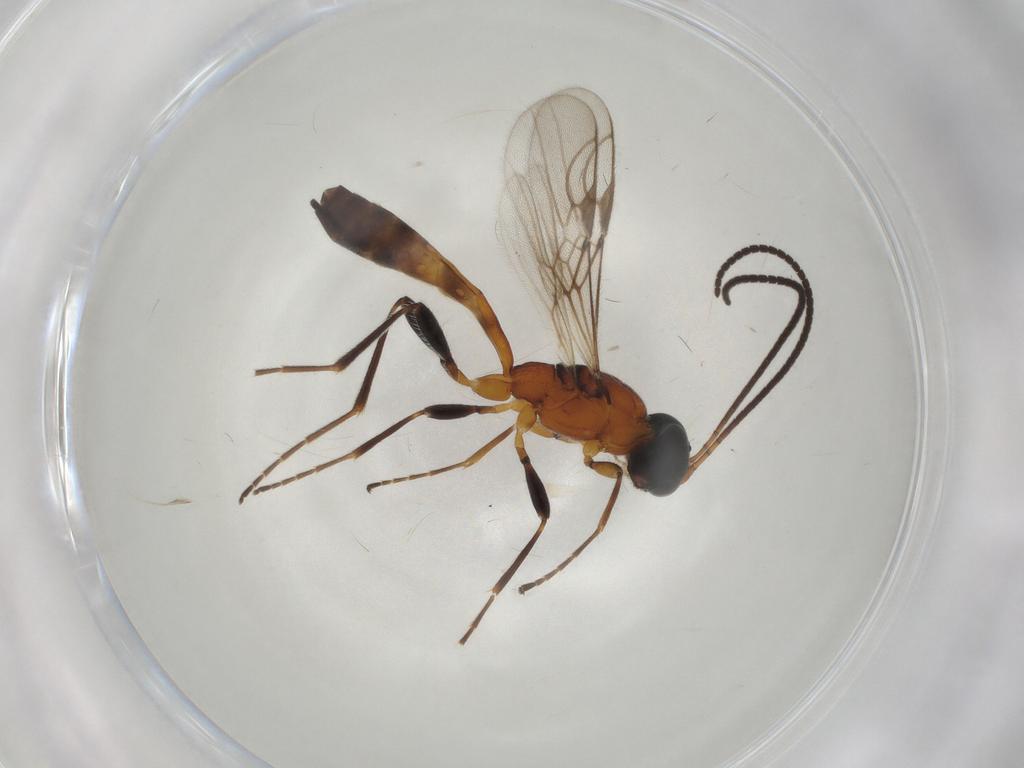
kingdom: Animalia
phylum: Arthropoda
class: Insecta
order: Hymenoptera
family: Braconidae
